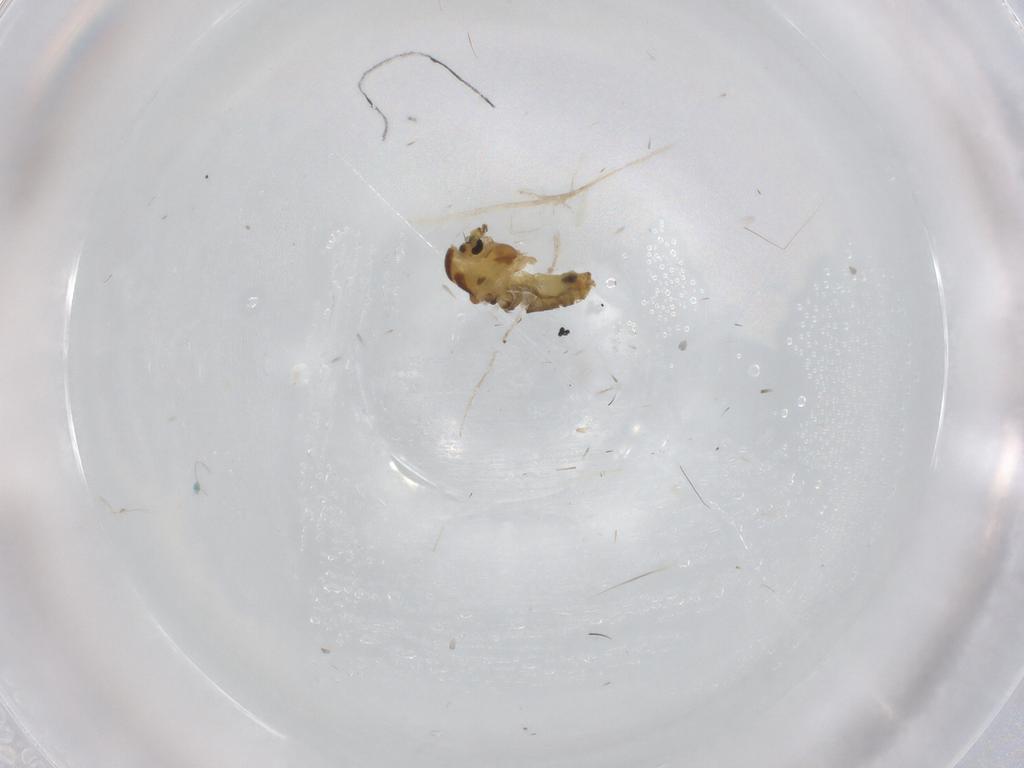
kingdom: Animalia
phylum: Arthropoda
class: Insecta
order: Diptera
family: Chironomidae
